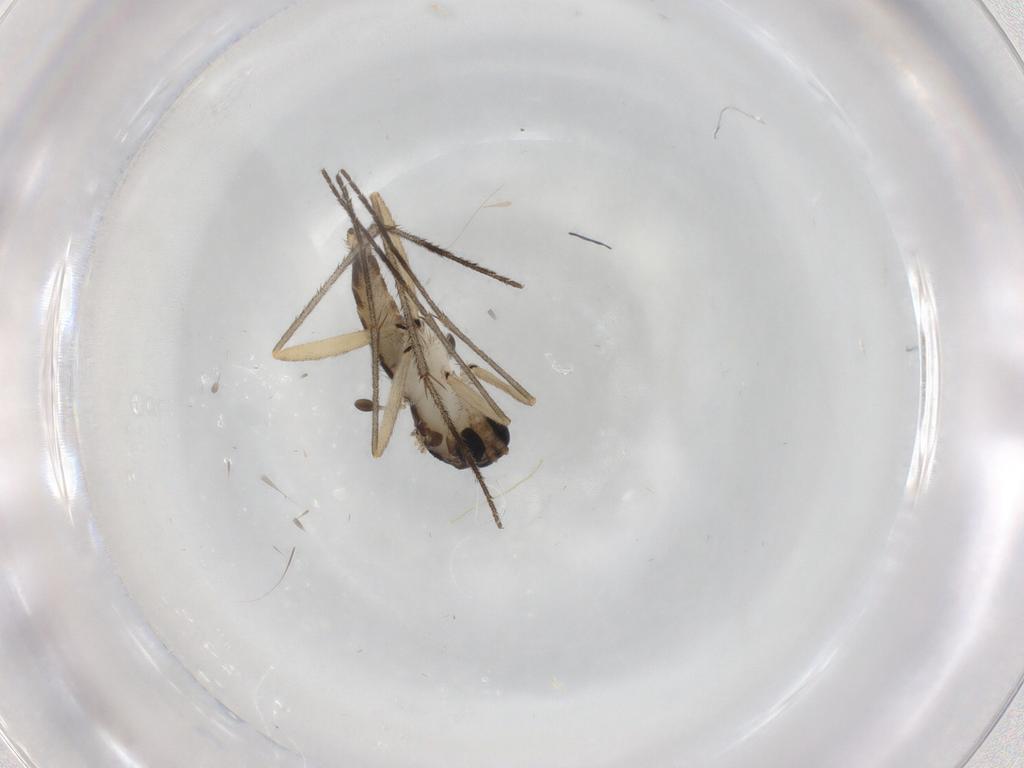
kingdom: Animalia
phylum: Arthropoda
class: Insecta
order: Diptera
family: Sciaridae
